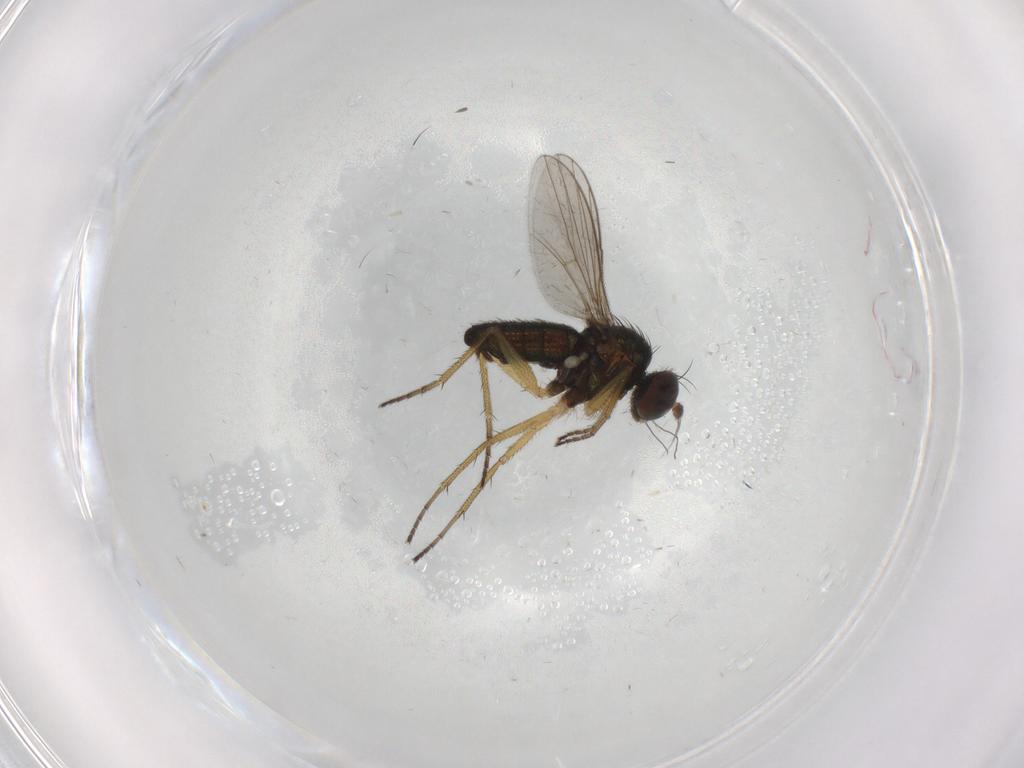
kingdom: Animalia
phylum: Arthropoda
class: Insecta
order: Diptera
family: Dolichopodidae
